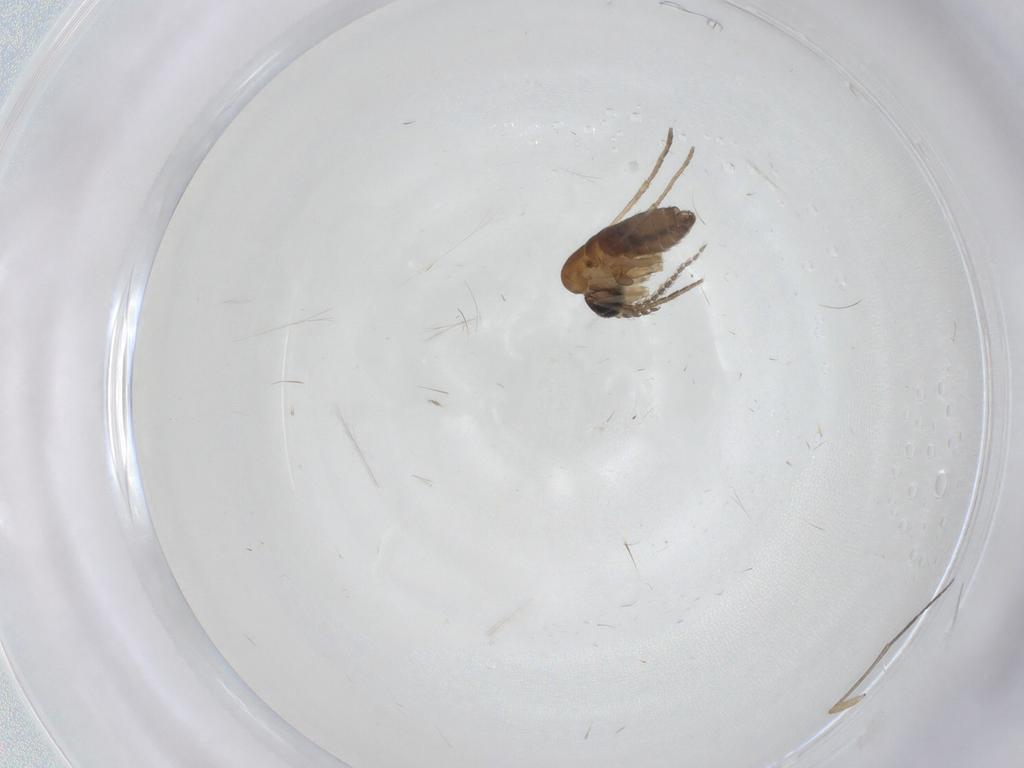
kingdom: Animalia
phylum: Arthropoda
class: Insecta
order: Diptera
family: Sciaridae
